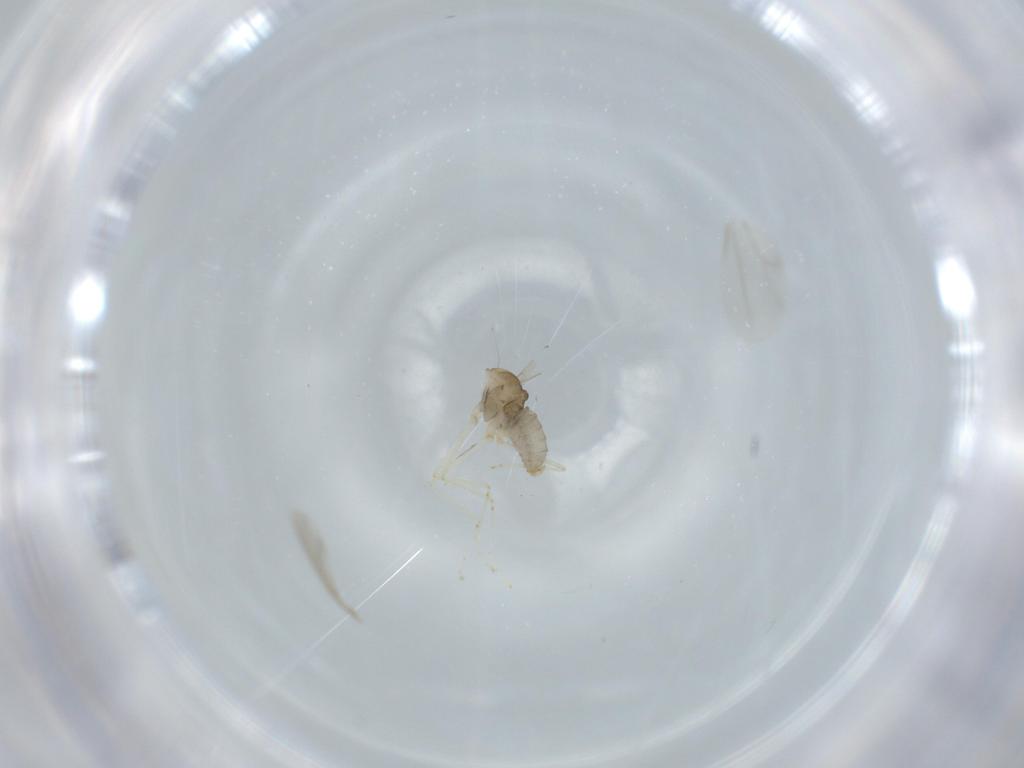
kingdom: Animalia
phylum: Arthropoda
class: Insecta
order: Diptera
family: Cecidomyiidae
